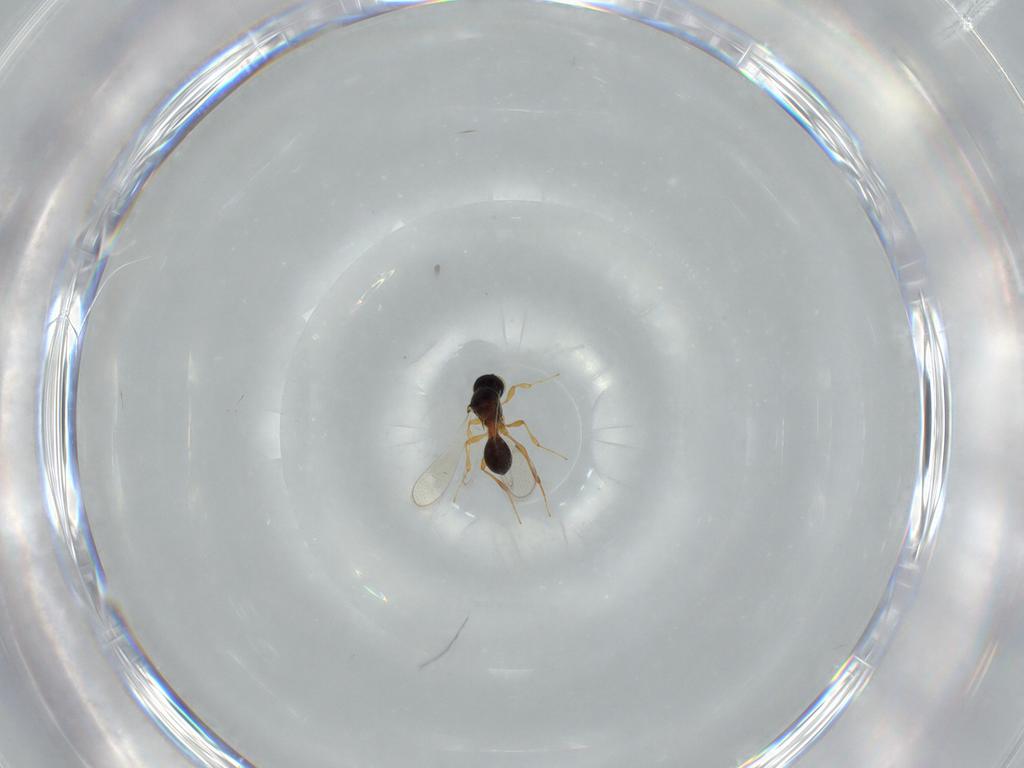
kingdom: Animalia
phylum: Arthropoda
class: Insecta
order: Hymenoptera
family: Platygastridae
